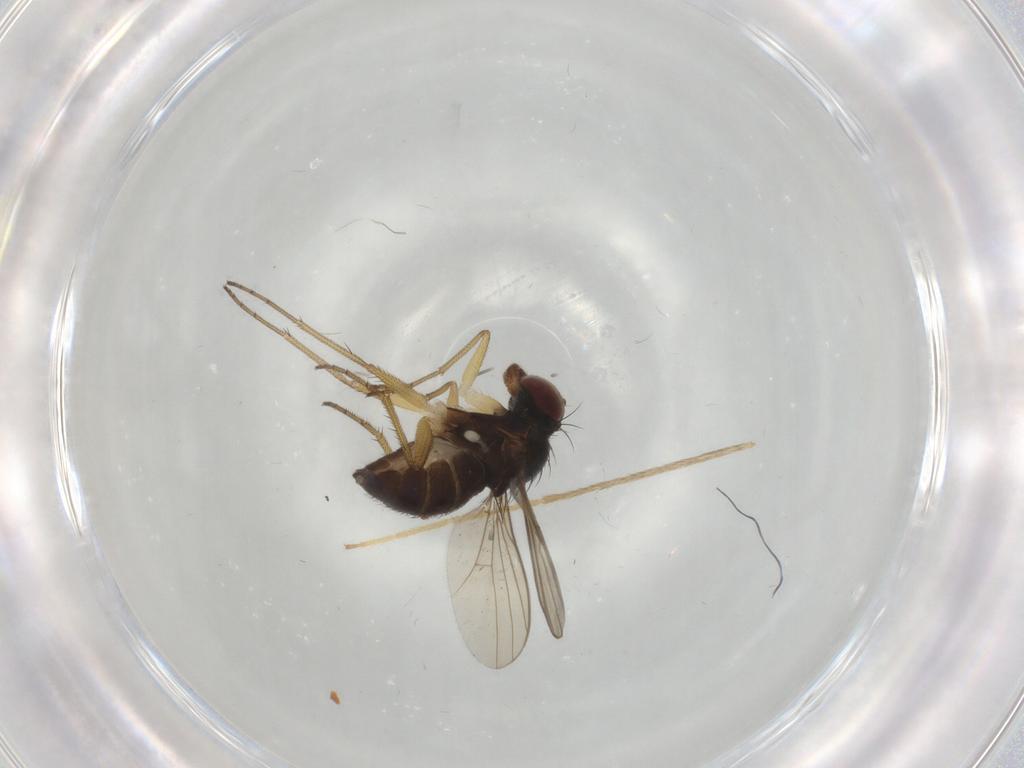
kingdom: Animalia
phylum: Arthropoda
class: Insecta
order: Diptera
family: Dolichopodidae
